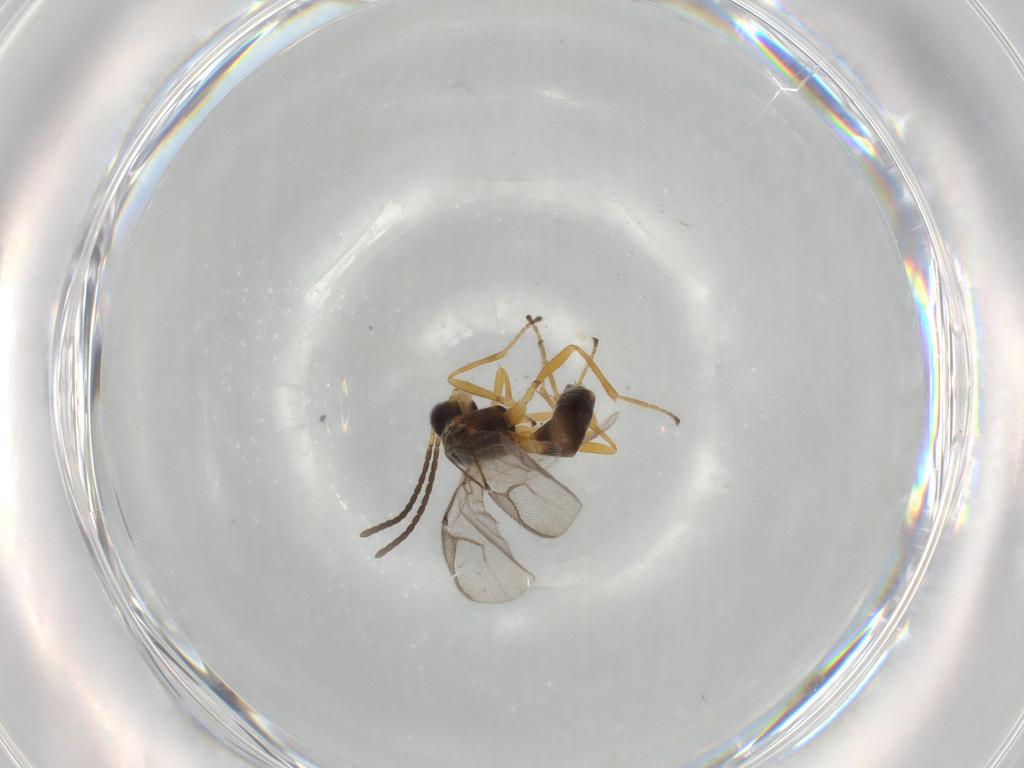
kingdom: Animalia
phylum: Arthropoda
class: Insecta
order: Hymenoptera
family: Braconidae
